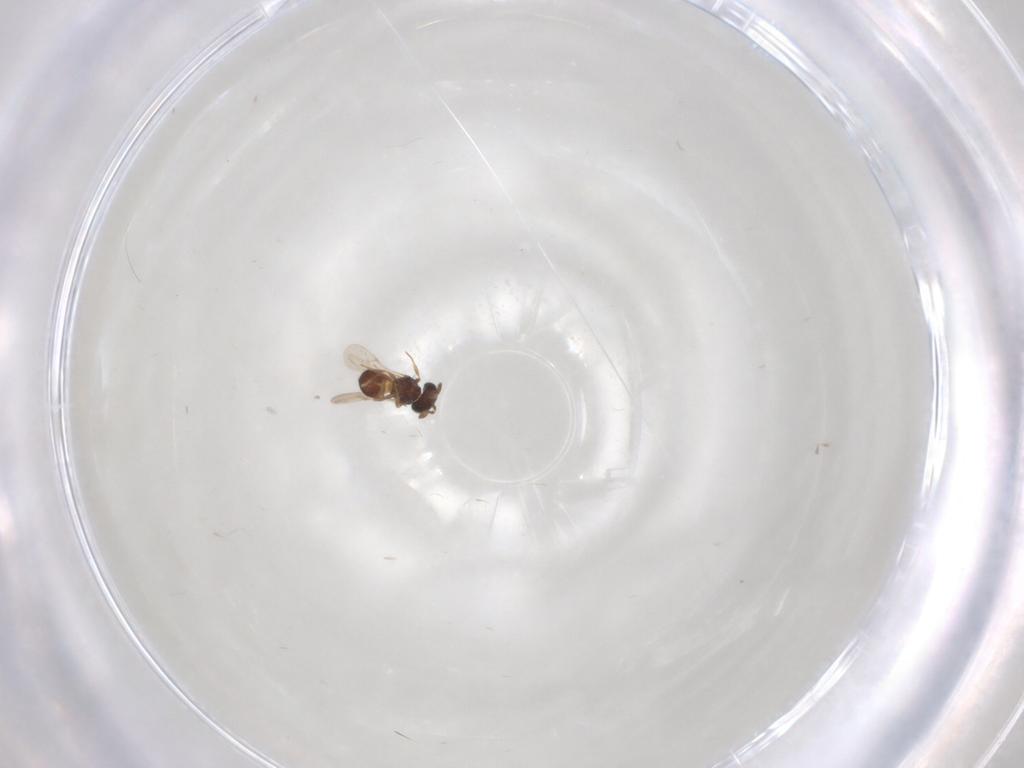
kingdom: Animalia
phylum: Arthropoda
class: Insecta
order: Hymenoptera
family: Scelionidae
